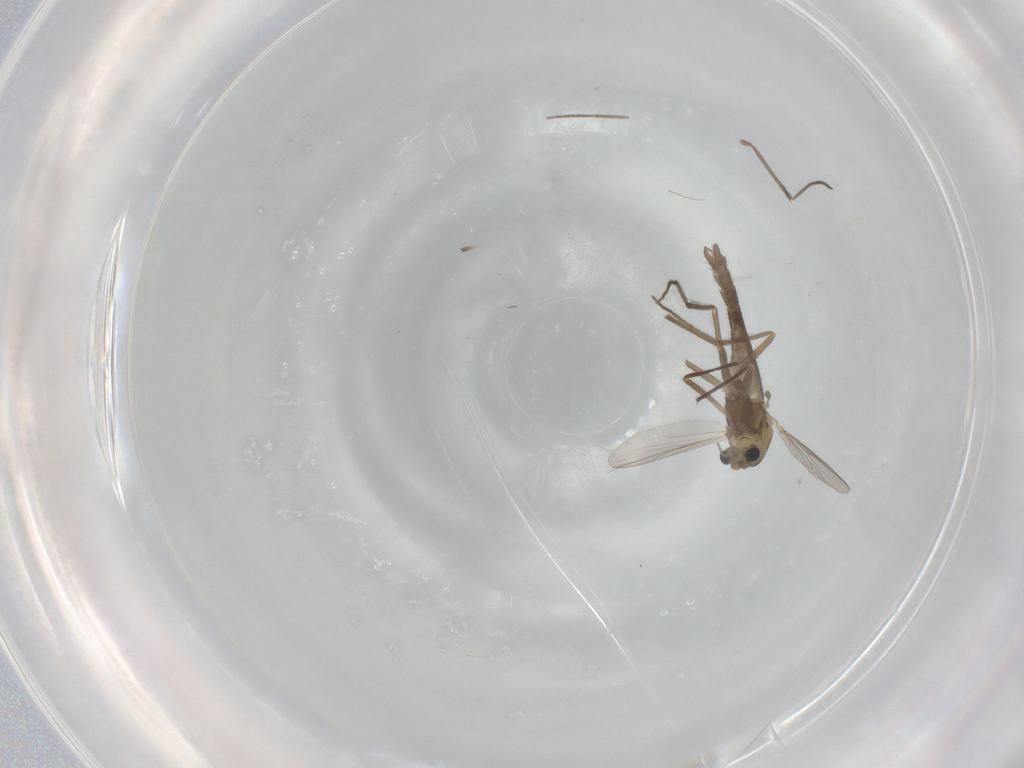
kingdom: Animalia
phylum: Arthropoda
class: Insecta
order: Diptera
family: Chironomidae
